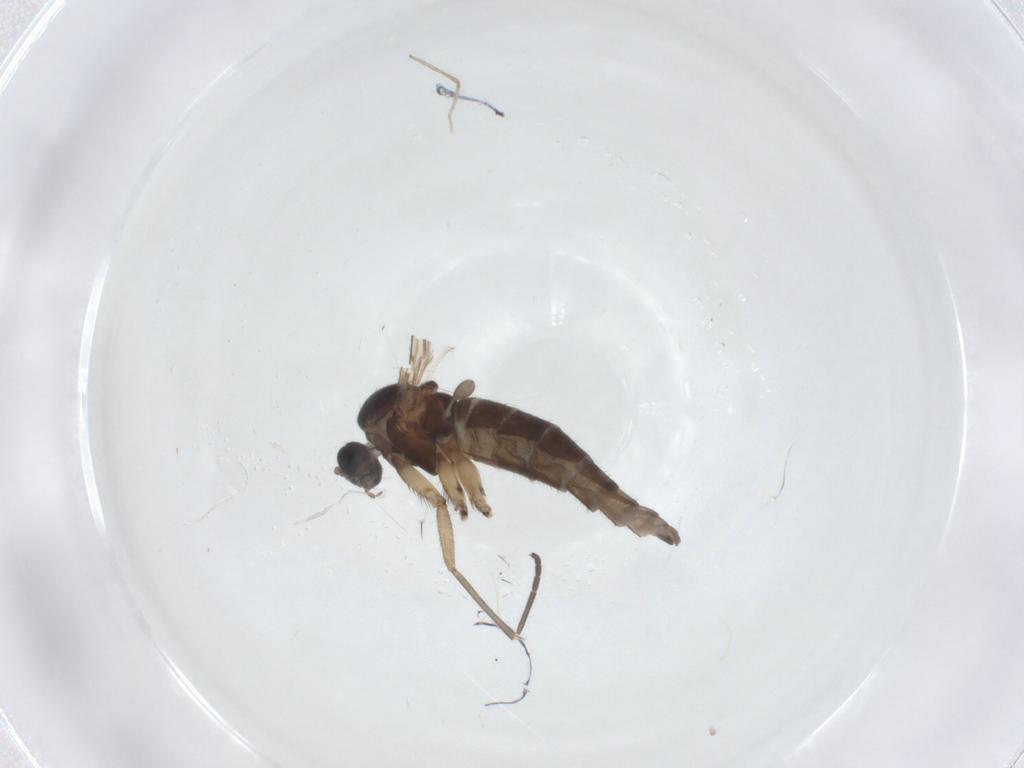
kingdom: Animalia
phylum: Arthropoda
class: Insecta
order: Diptera
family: Sciaridae
